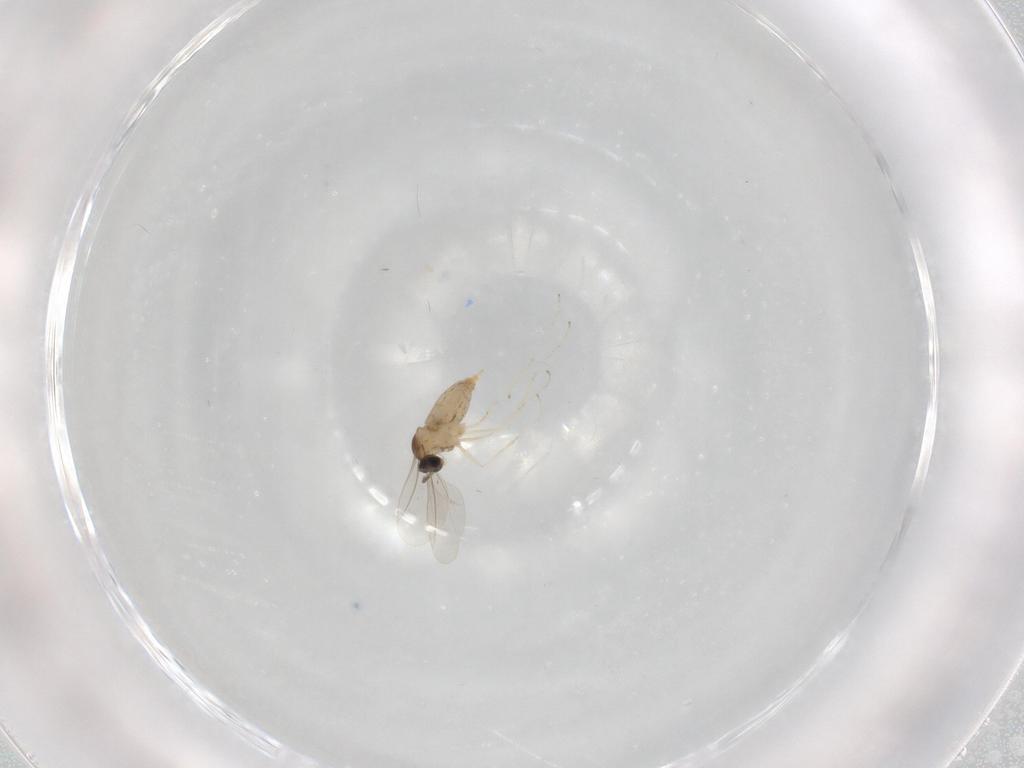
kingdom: Animalia
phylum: Arthropoda
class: Insecta
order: Diptera
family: Cecidomyiidae
